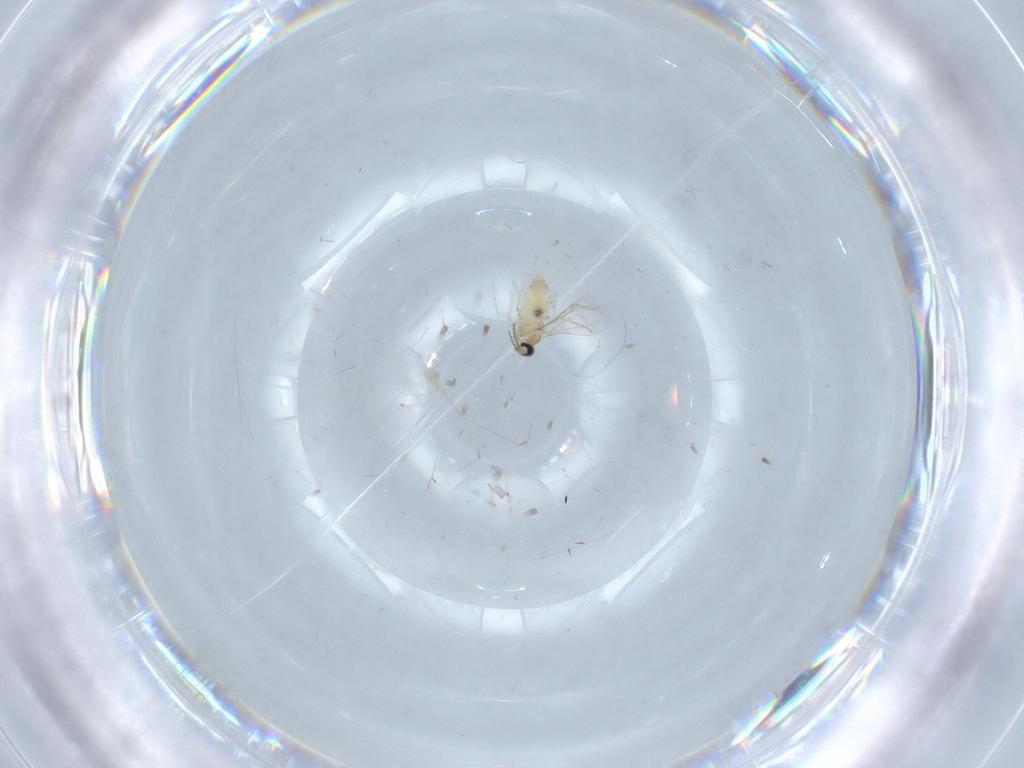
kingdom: Animalia
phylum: Arthropoda
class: Insecta
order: Diptera
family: Cecidomyiidae
